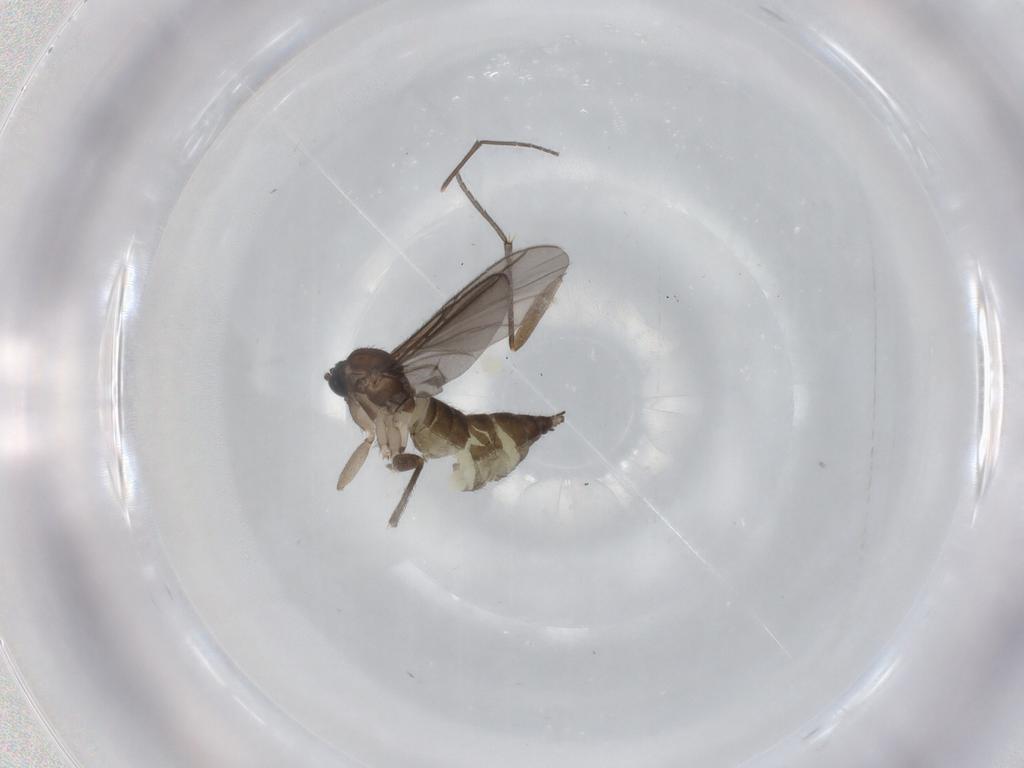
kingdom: Animalia
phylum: Arthropoda
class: Insecta
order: Diptera
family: Sciaridae
